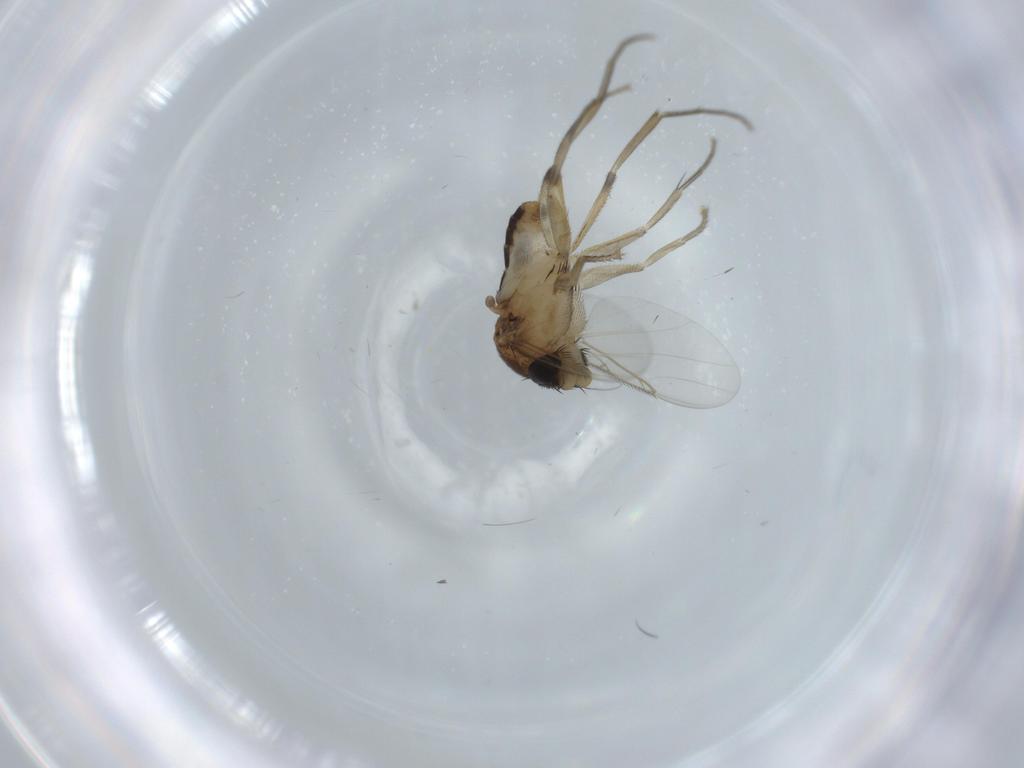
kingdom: Animalia
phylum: Arthropoda
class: Insecta
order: Diptera
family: Phoridae
